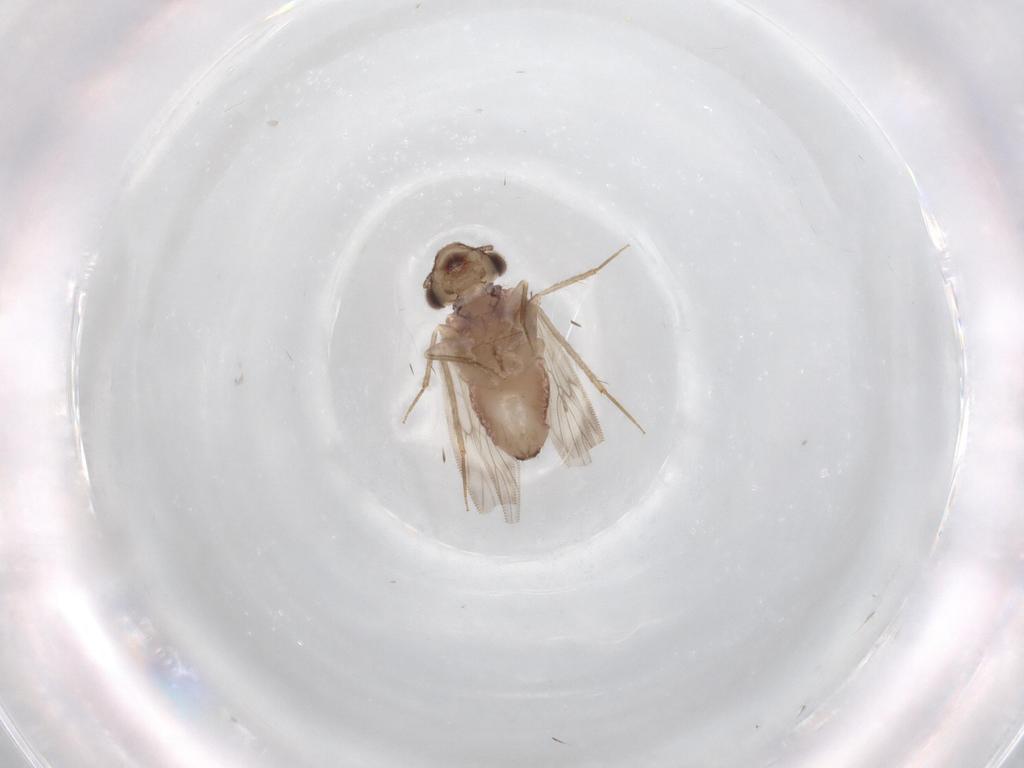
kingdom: Animalia
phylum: Arthropoda
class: Insecta
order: Psocodea
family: Lepidopsocidae
